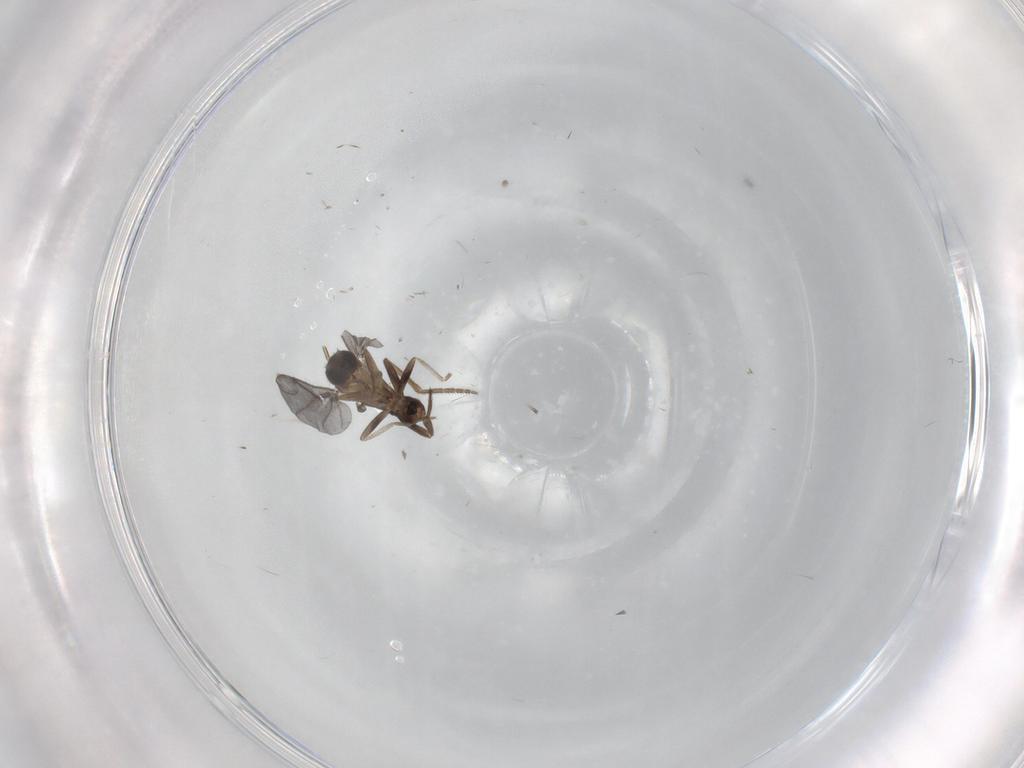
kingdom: Animalia
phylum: Arthropoda
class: Insecta
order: Diptera
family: Phoridae
